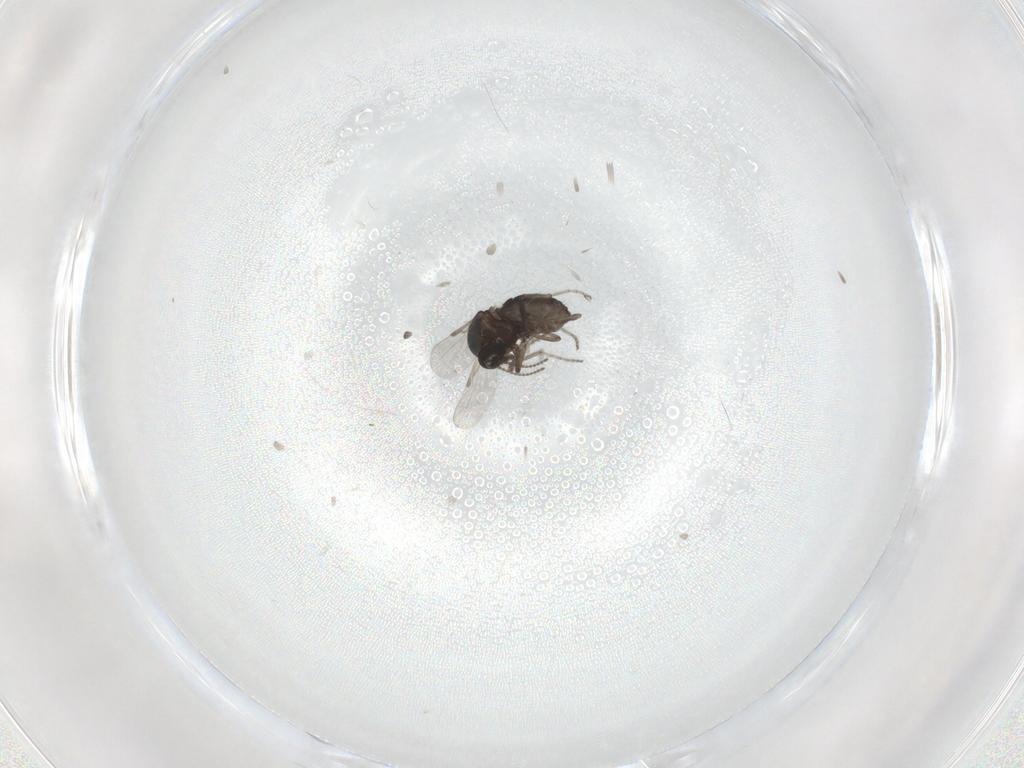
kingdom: Animalia
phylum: Arthropoda
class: Insecta
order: Diptera
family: Ceratopogonidae
